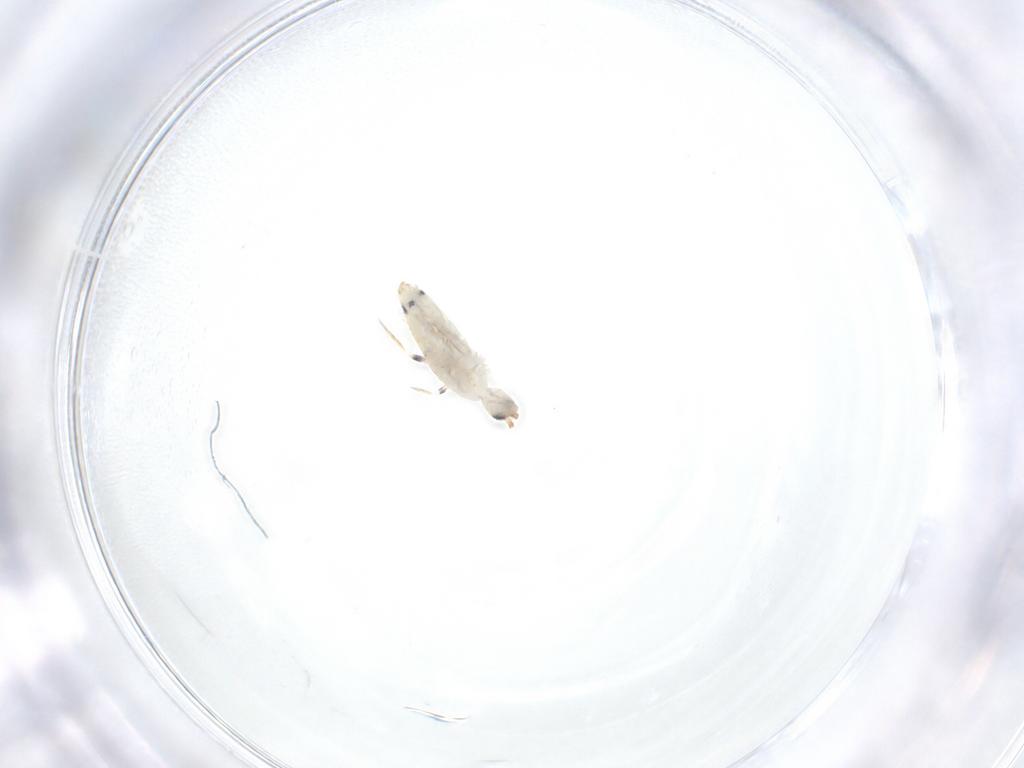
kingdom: Animalia
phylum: Arthropoda
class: Collembola
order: Entomobryomorpha
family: Entomobryidae
